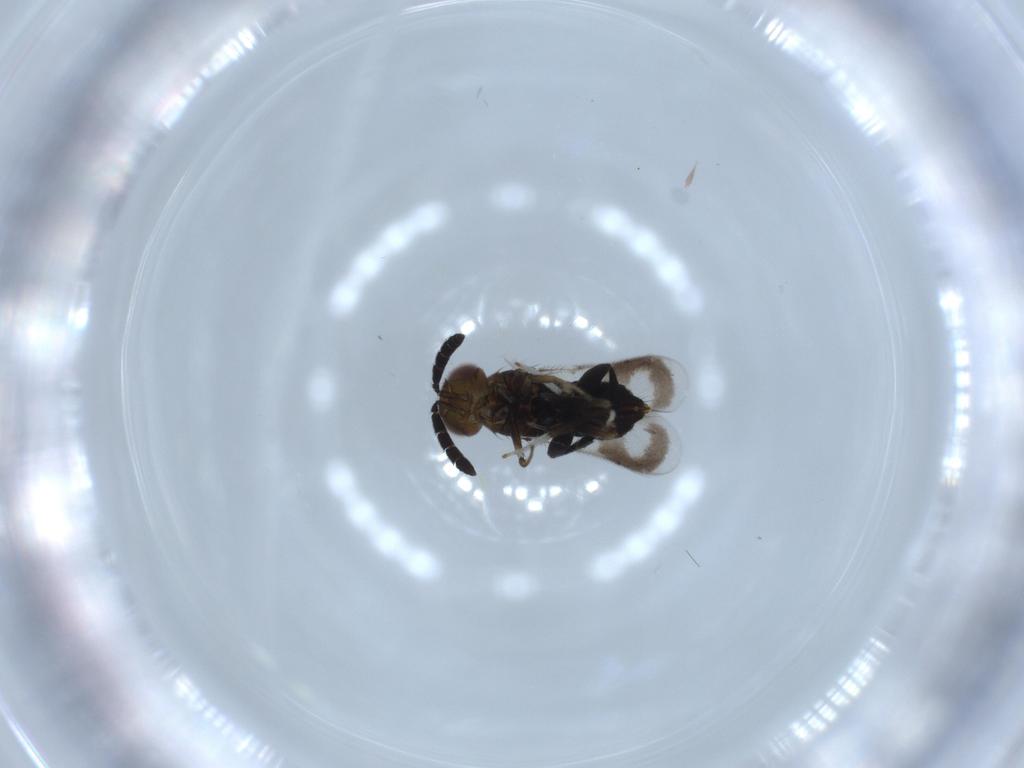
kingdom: Animalia
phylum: Arthropoda
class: Insecta
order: Hymenoptera
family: Aphelinidae
